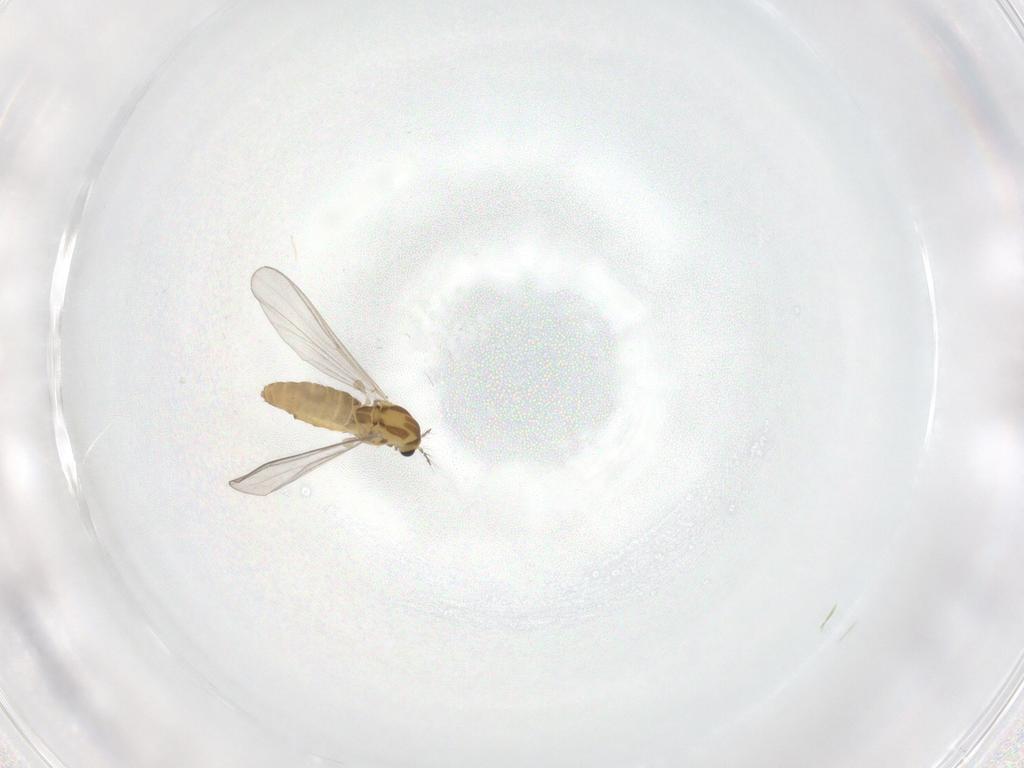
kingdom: Animalia
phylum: Arthropoda
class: Insecta
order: Diptera
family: Chironomidae
